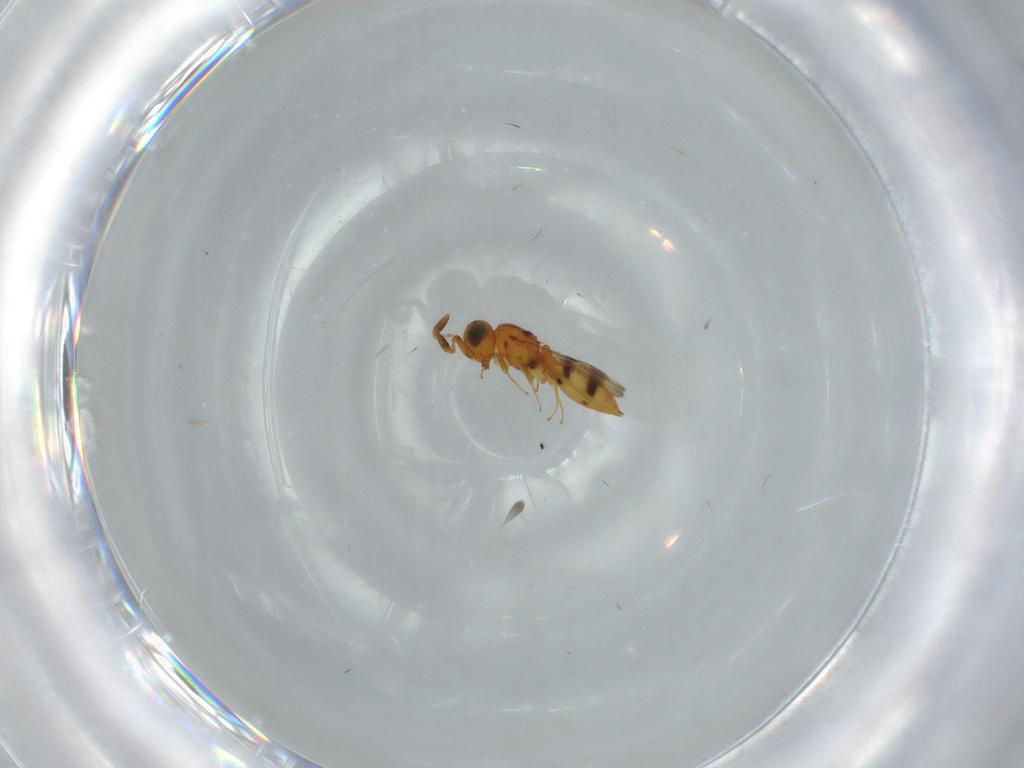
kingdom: Animalia
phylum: Arthropoda
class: Insecta
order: Hymenoptera
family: Scelionidae
